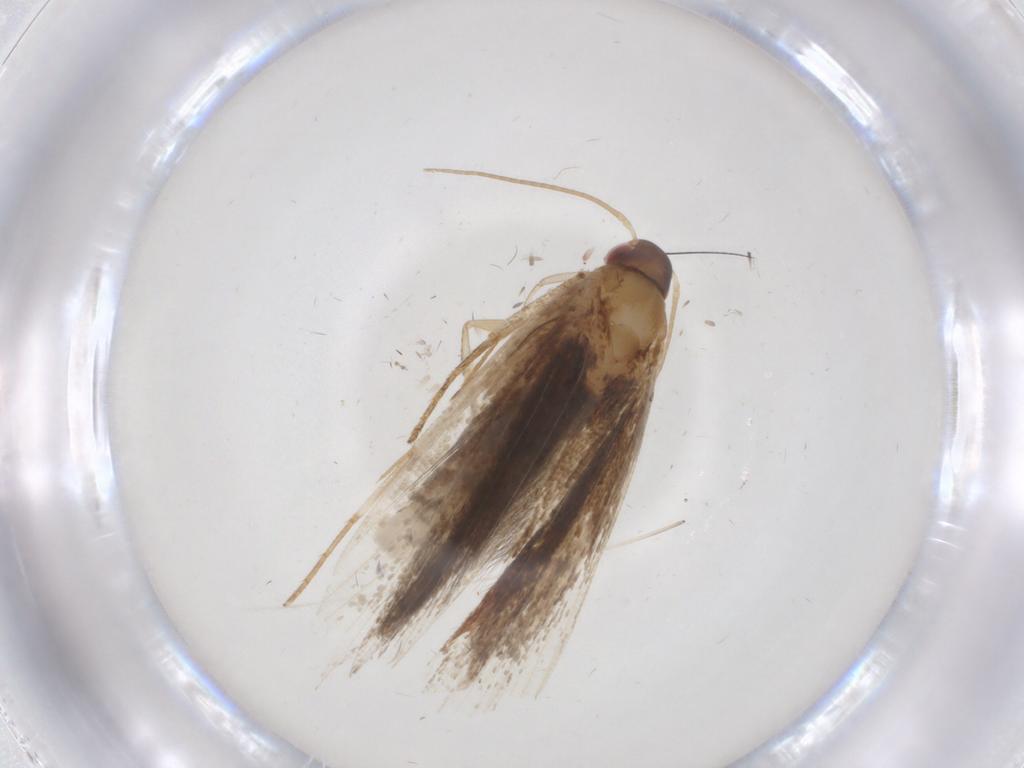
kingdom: Animalia
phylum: Arthropoda
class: Insecta
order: Lepidoptera
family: Gelechiidae
